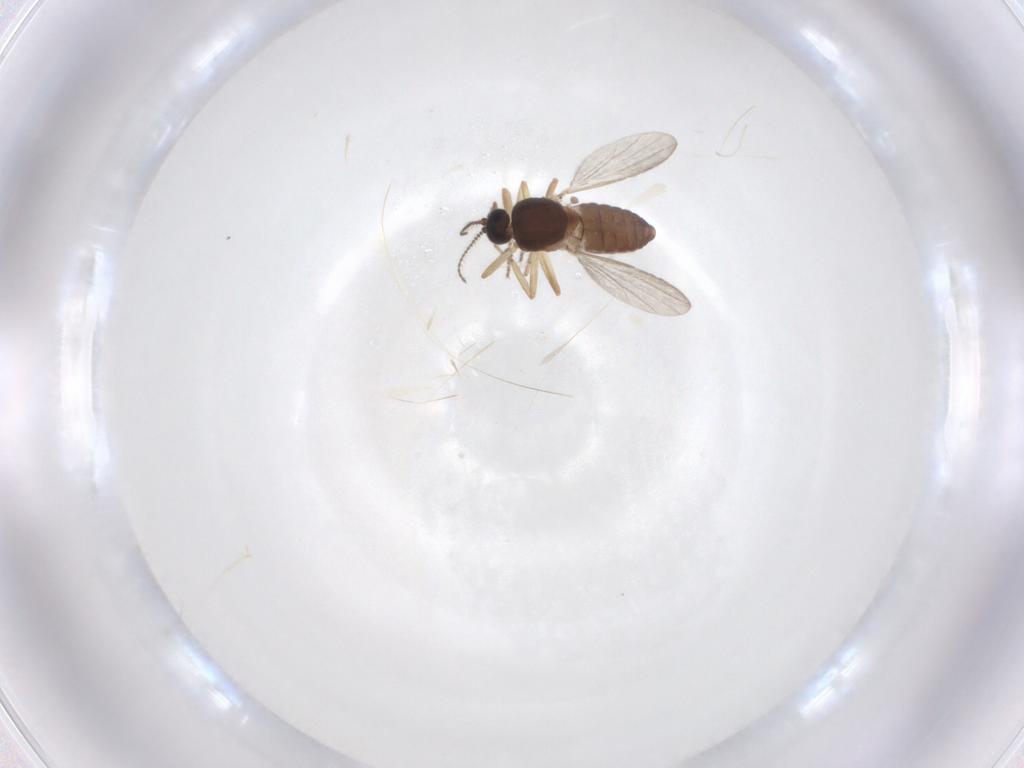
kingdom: Animalia
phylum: Arthropoda
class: Insecta
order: Diptera
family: Ceratopogonidae
